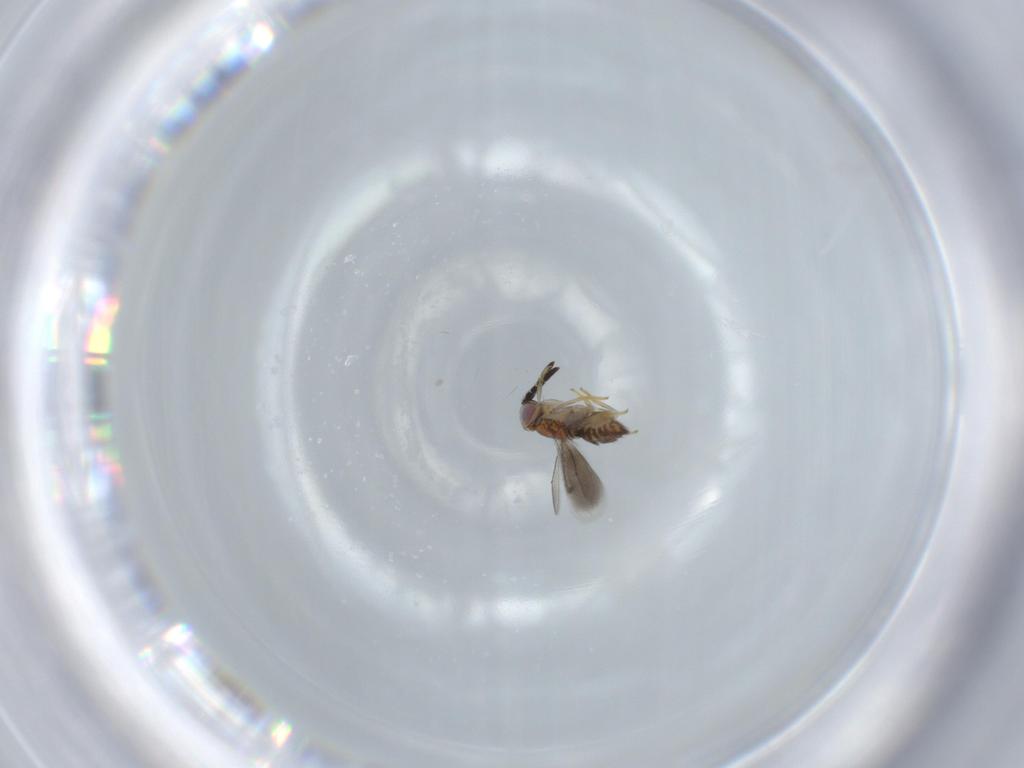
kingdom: Animalia
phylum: Arthropoda
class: Insecta
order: Hymenoptera
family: Aphelinidae
